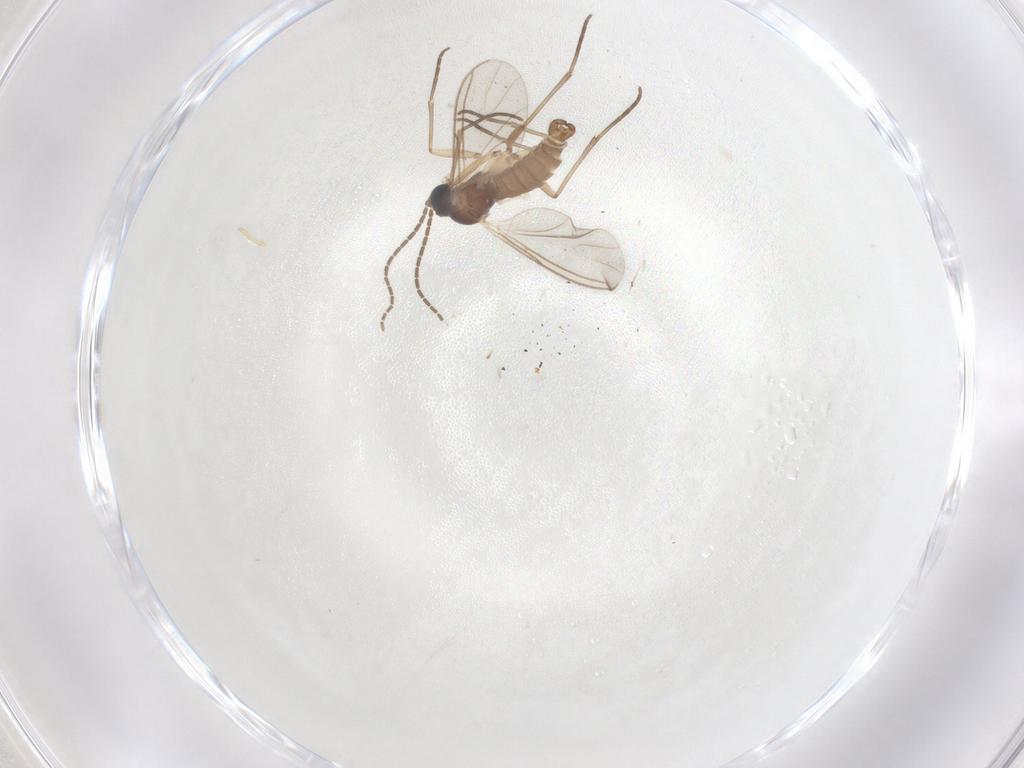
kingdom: Animalia
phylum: Arthropoda
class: Insecta
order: Diptera
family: Sciaridae
